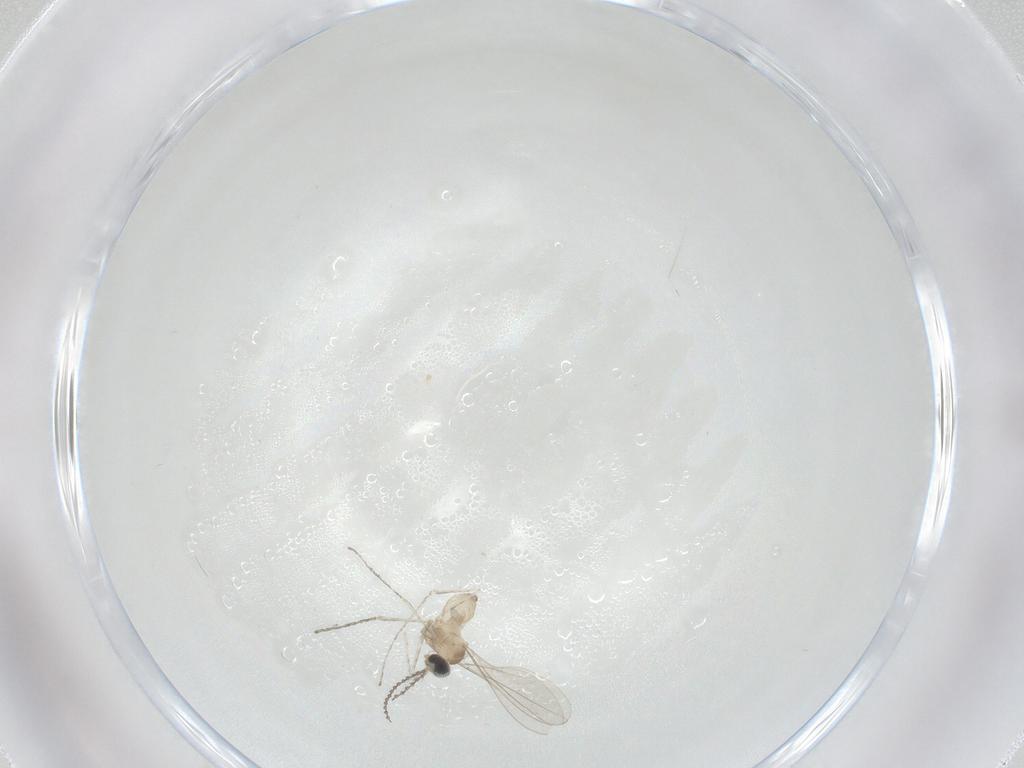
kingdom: Animalia
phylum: Arthropoda
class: Insecta
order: Diptera
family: Cecidomyiidae
